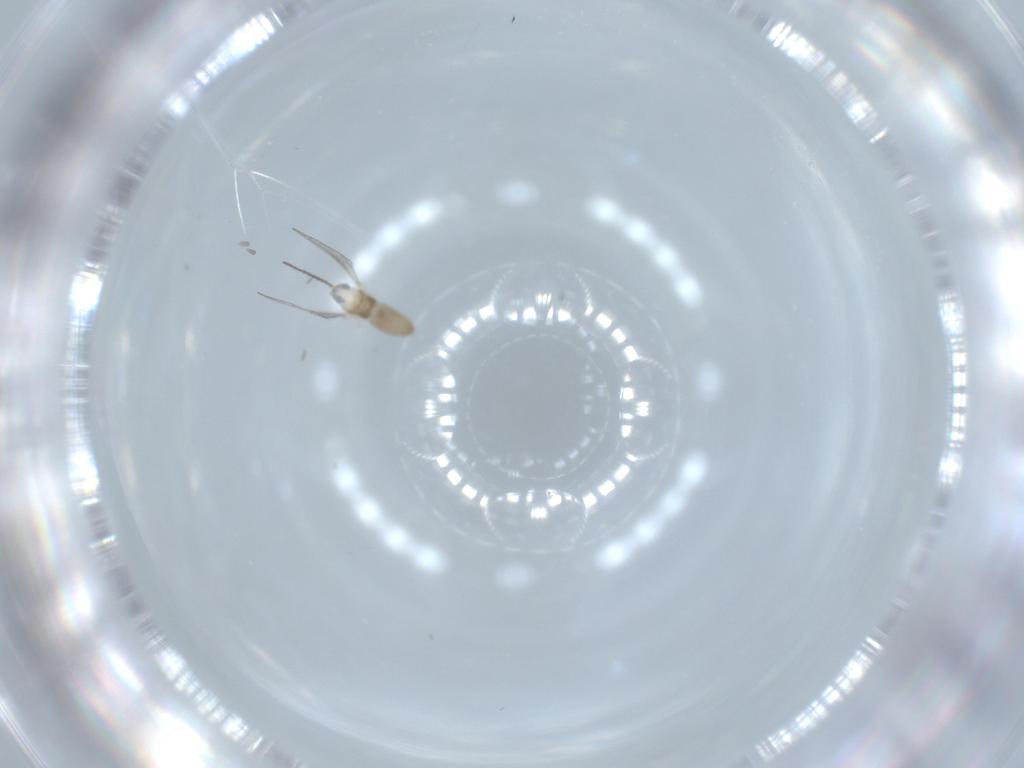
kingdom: Animalia
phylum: Arthropoda
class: Insecta
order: Diptera
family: Cecidomyiidae
